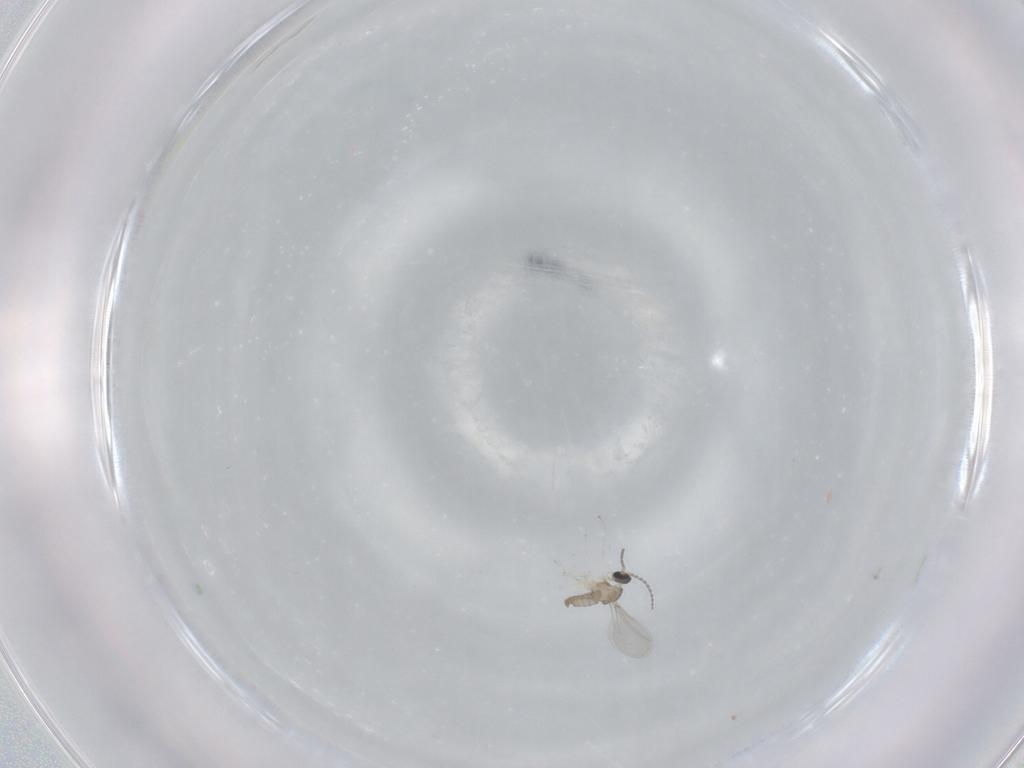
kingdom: Animalia
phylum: Arthropoda
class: Insecta
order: Diptera
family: Cecidomyiidae
